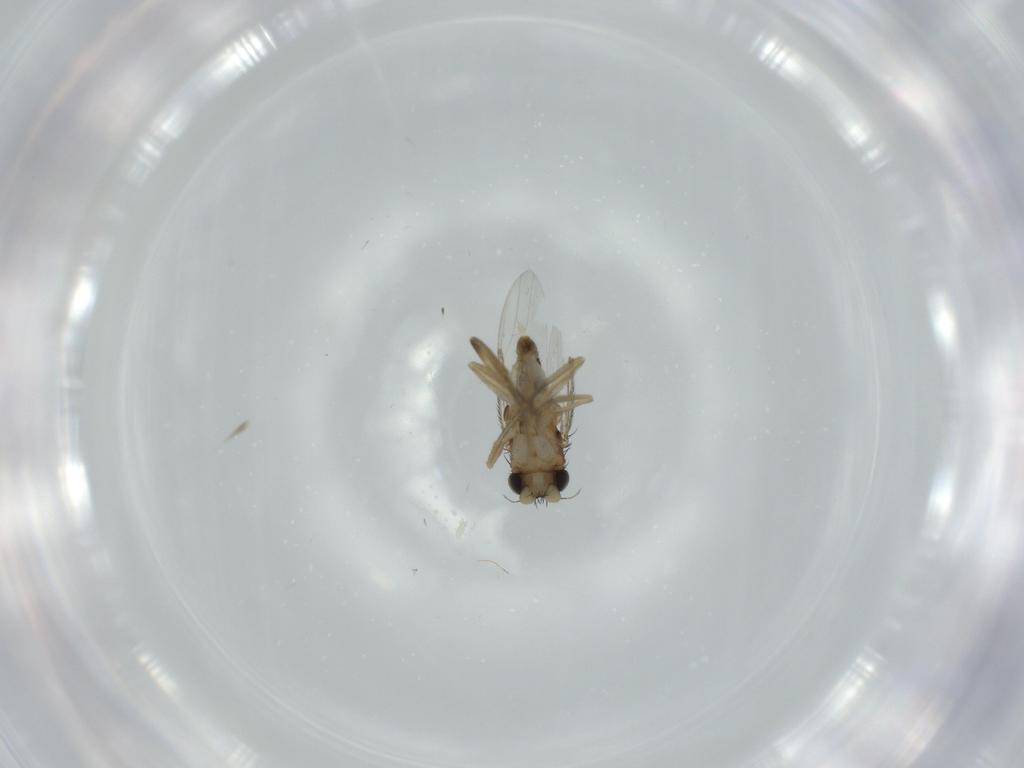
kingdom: Animalia
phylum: Arthropoda
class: Insecta
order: Diptera
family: Phoridae
